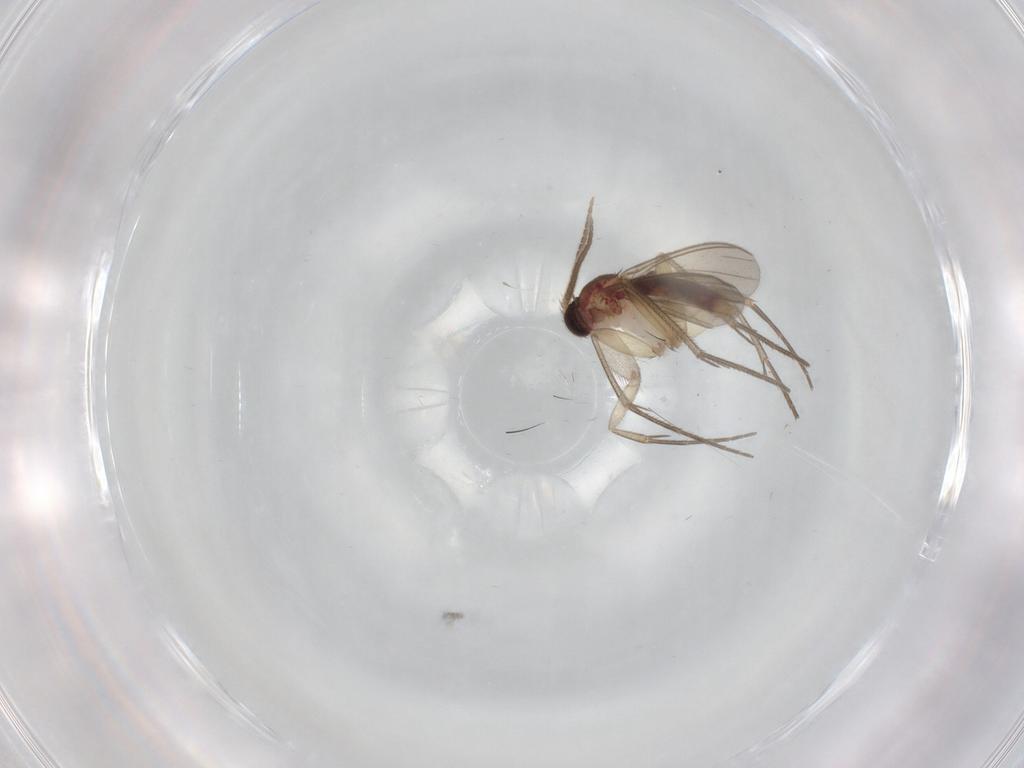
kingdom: Animalia
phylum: Arthropoda
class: Insecta
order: Diptera
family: Mycetophilidae
